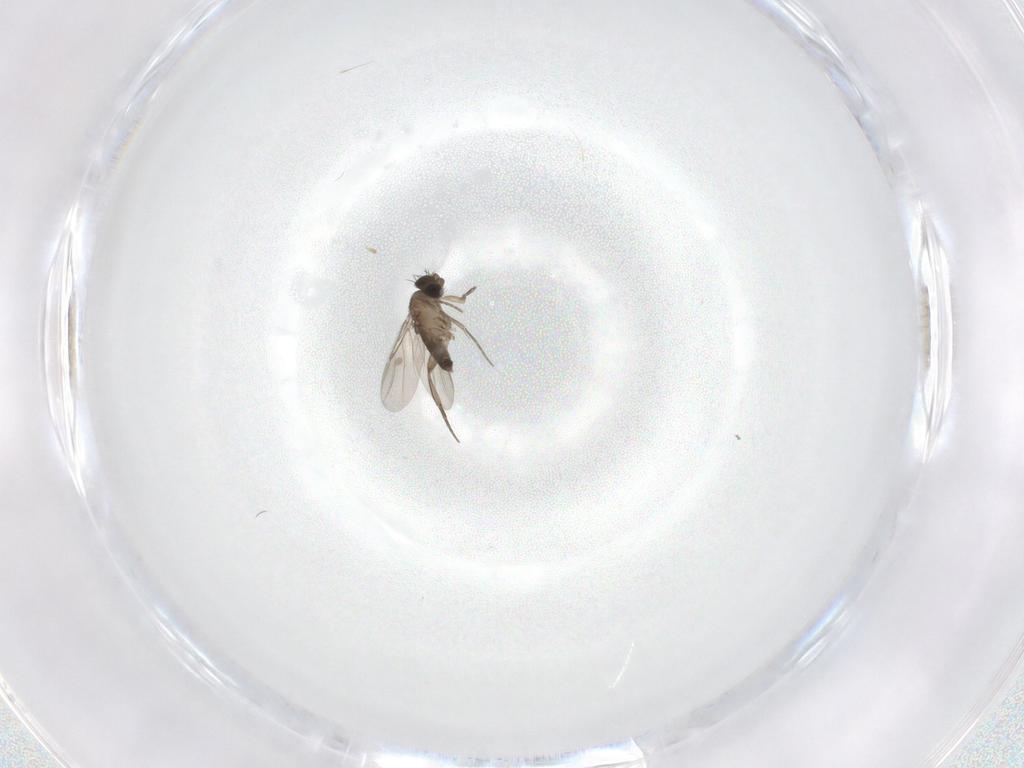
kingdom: Animalia
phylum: Arthropoda
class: Insecta
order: Diptera
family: Phoridae
